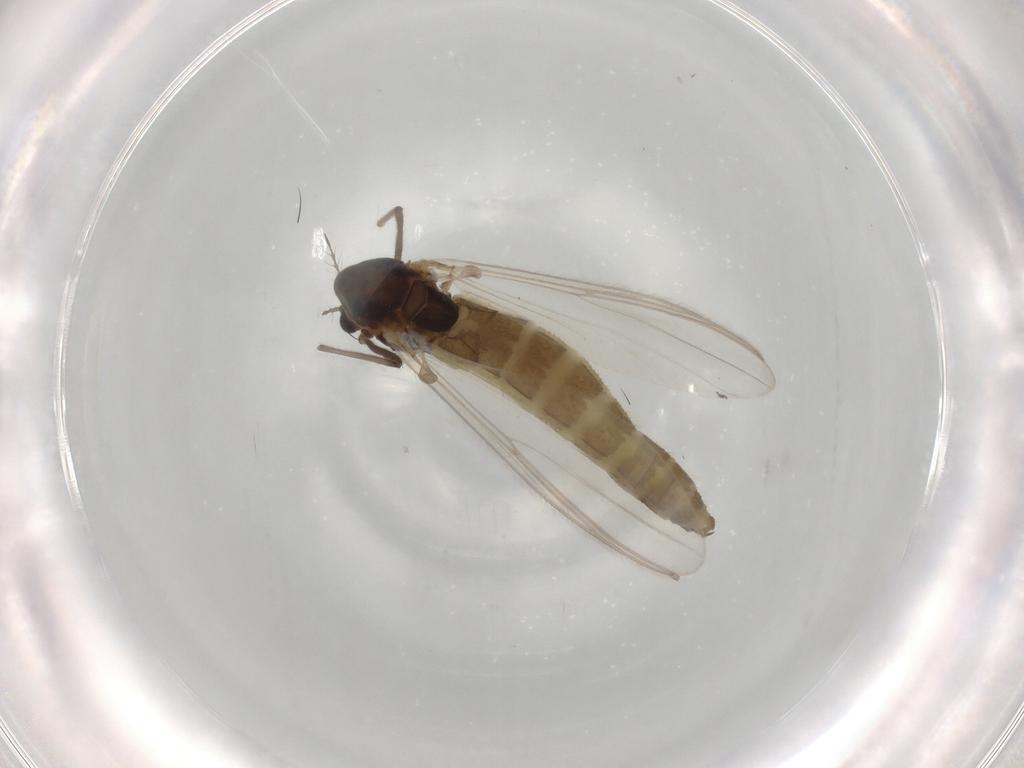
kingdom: Animalia
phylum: Arthropoda
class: Insecta
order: Diptera
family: Chironomidae
